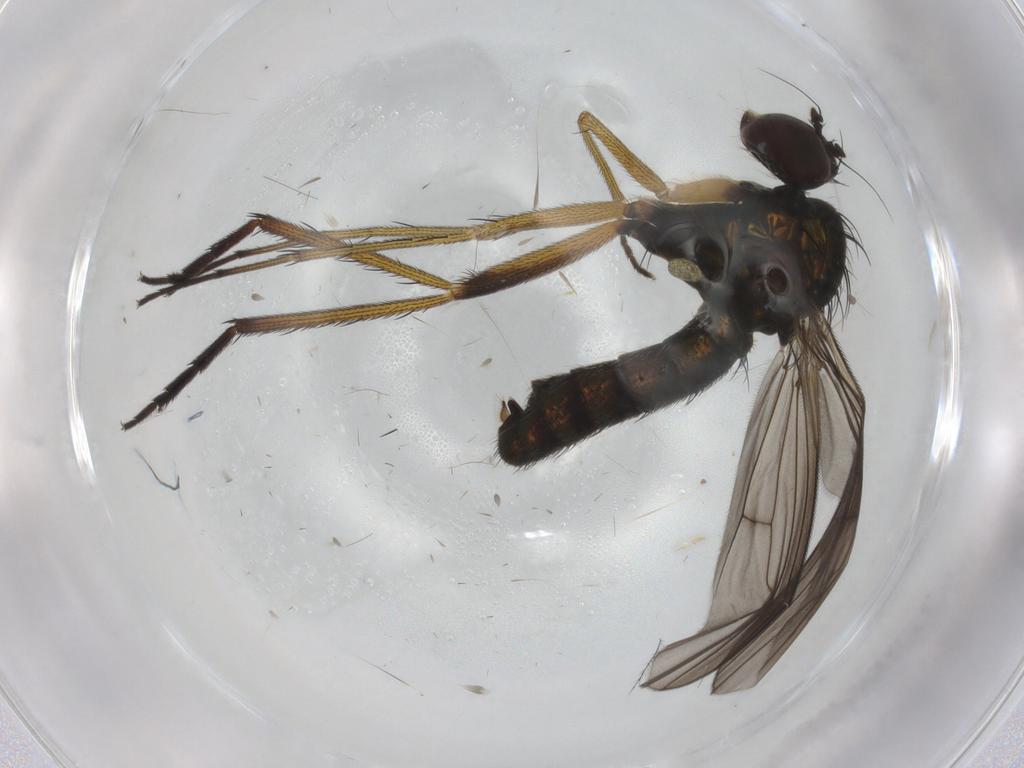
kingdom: Animalia
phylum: Arthropoda
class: Insecta
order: Diptera
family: Dolichopodidae
